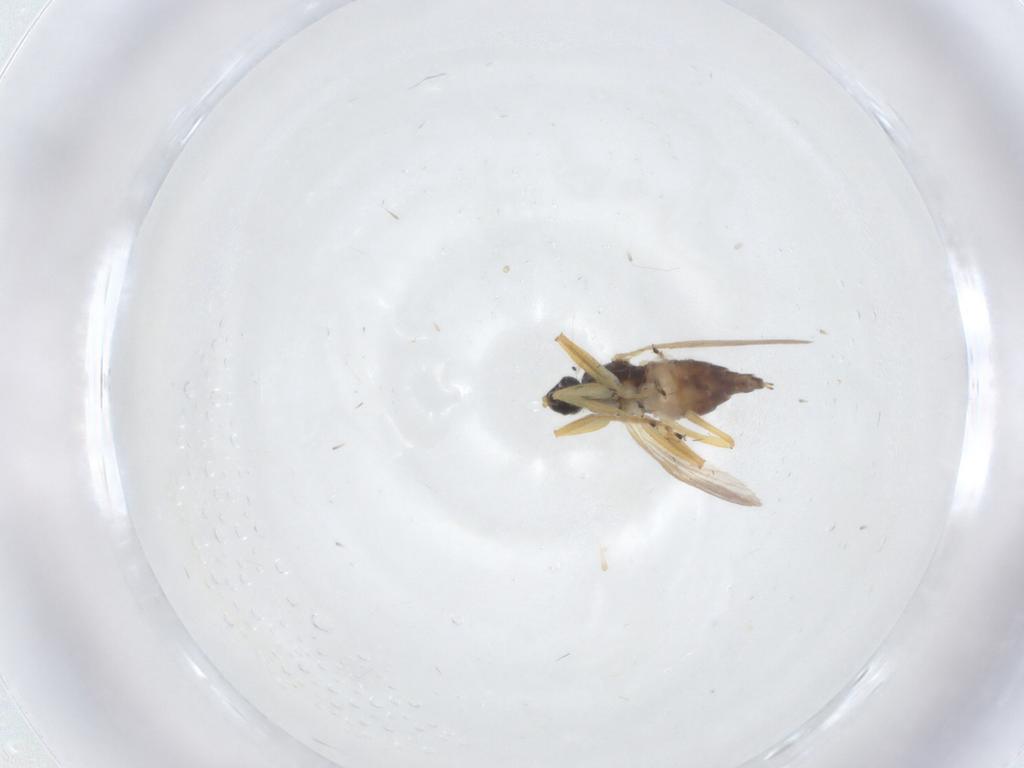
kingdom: Animalia
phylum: Arthropoda
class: Insecta
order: Diptera
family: Hybotidae
